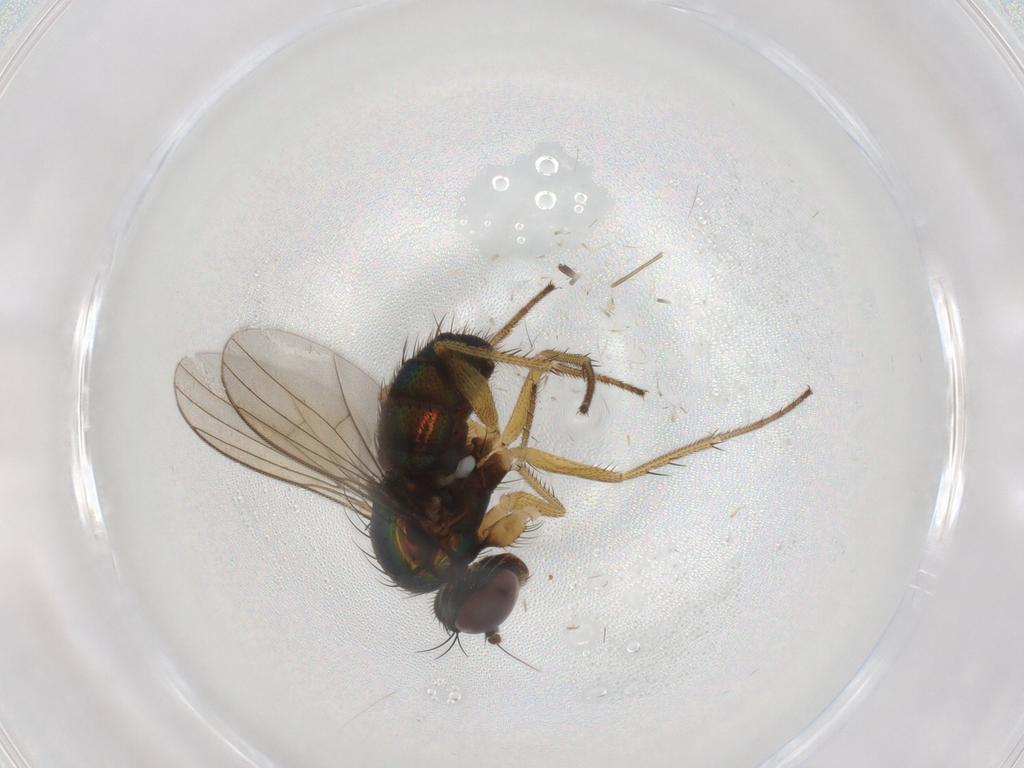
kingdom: Animalia
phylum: Arthropoda
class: Insecta
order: Diptera
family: Dolichopodidae
